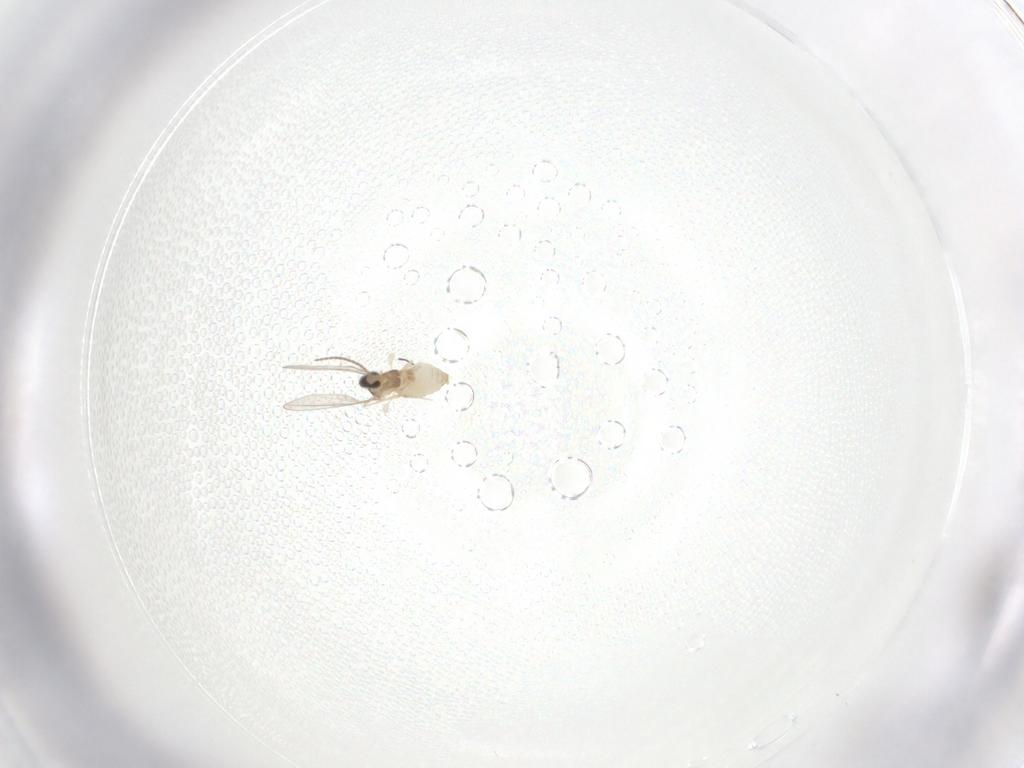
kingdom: Animalia
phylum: Arthropoda
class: Insecta
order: Diptera
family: Cecidomyiidae
